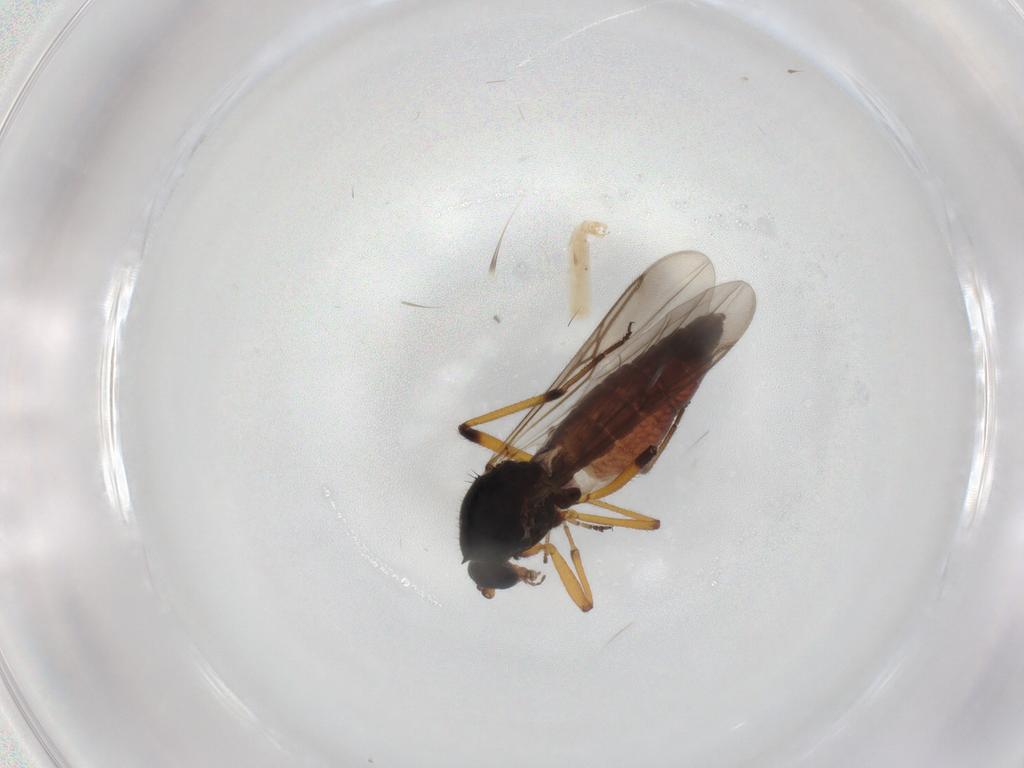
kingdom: Animalia
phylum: Arthropoda
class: Insecta
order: Diptera
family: Ceratopogonidae
